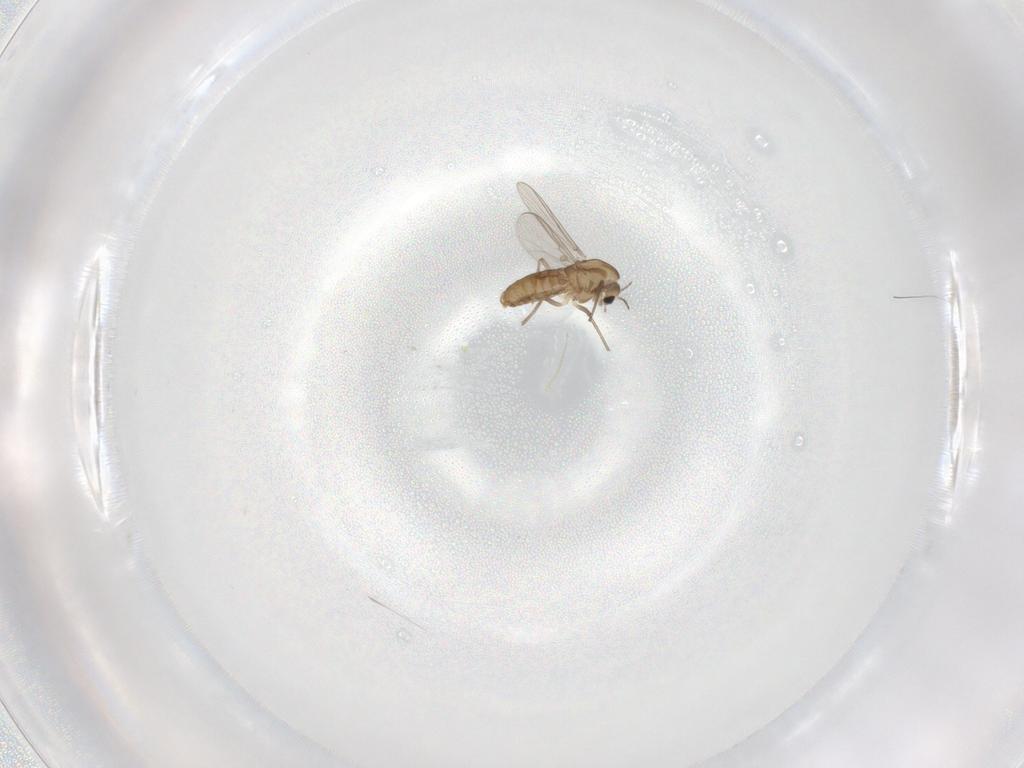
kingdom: Animalia
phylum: Arthropoda
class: Insecta
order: Diptera
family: Chironomidae
